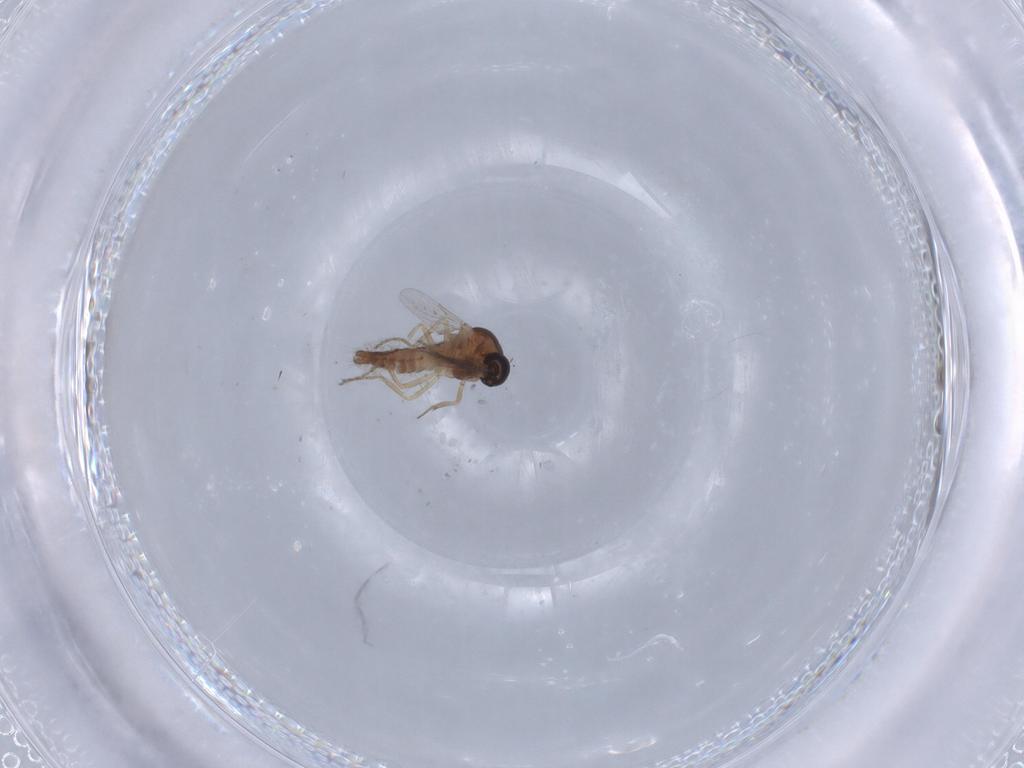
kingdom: Animalia
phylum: Arthropoda
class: Insecta
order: Diptera
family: Ceratopogonidae
